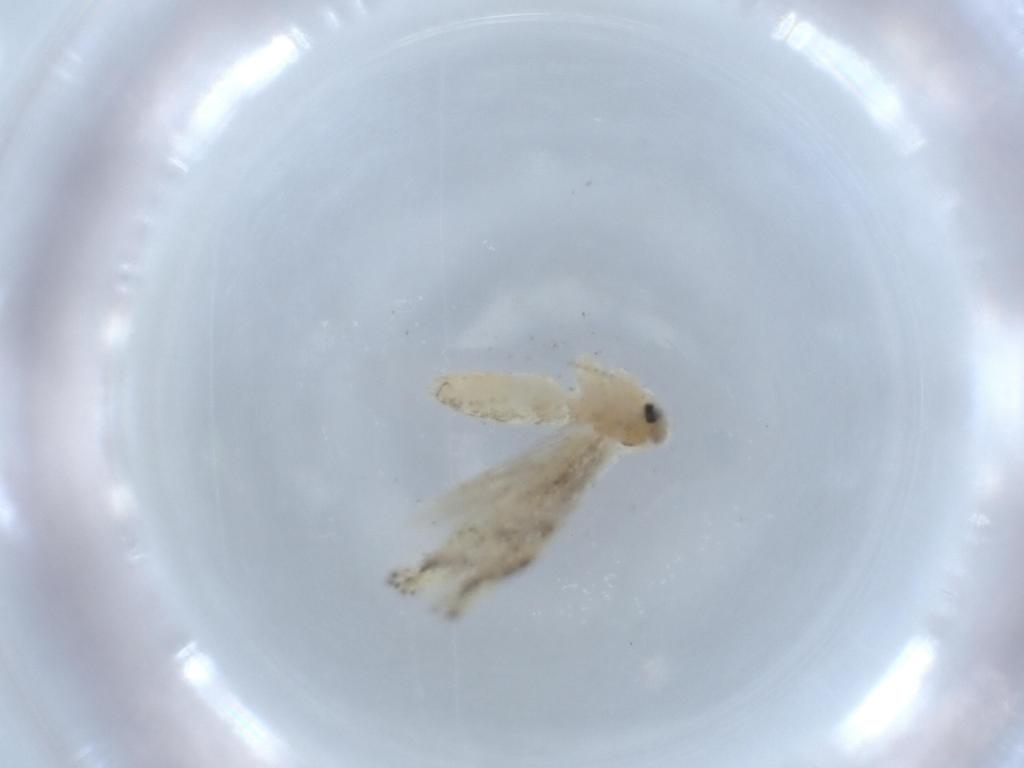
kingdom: Animalia
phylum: Arthropoda
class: Insecta
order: Lepidoptera
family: Bucculatricidae
